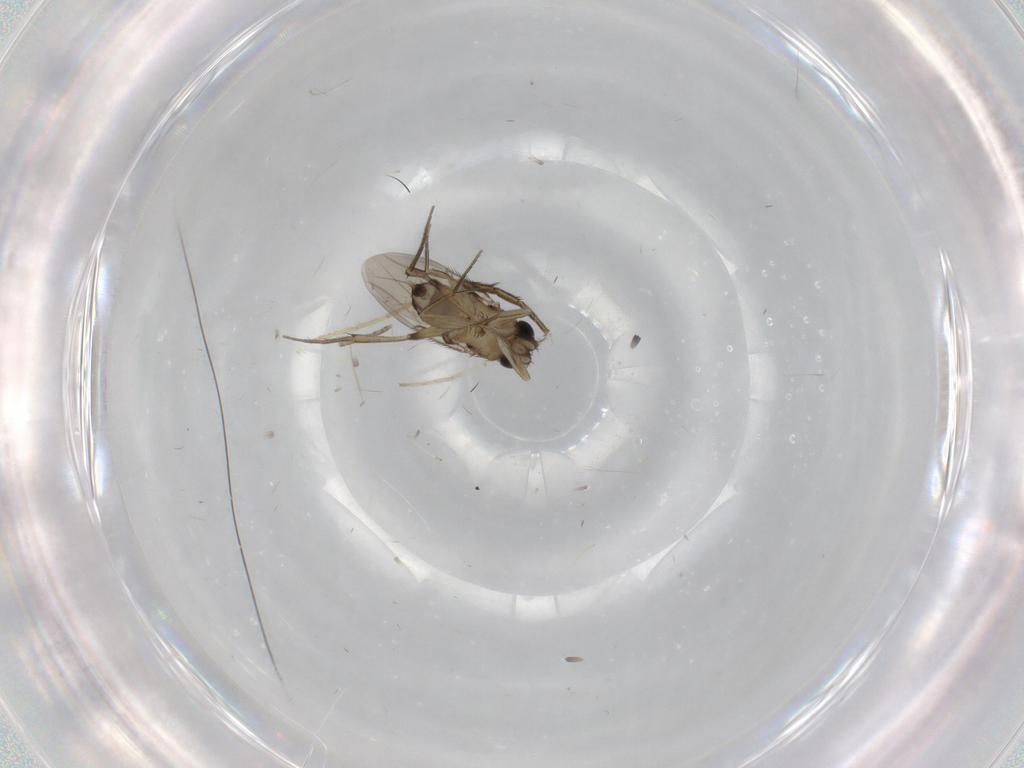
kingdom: Animalia
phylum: Arthropoda
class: Insecta
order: Diptera
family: Phoridae
